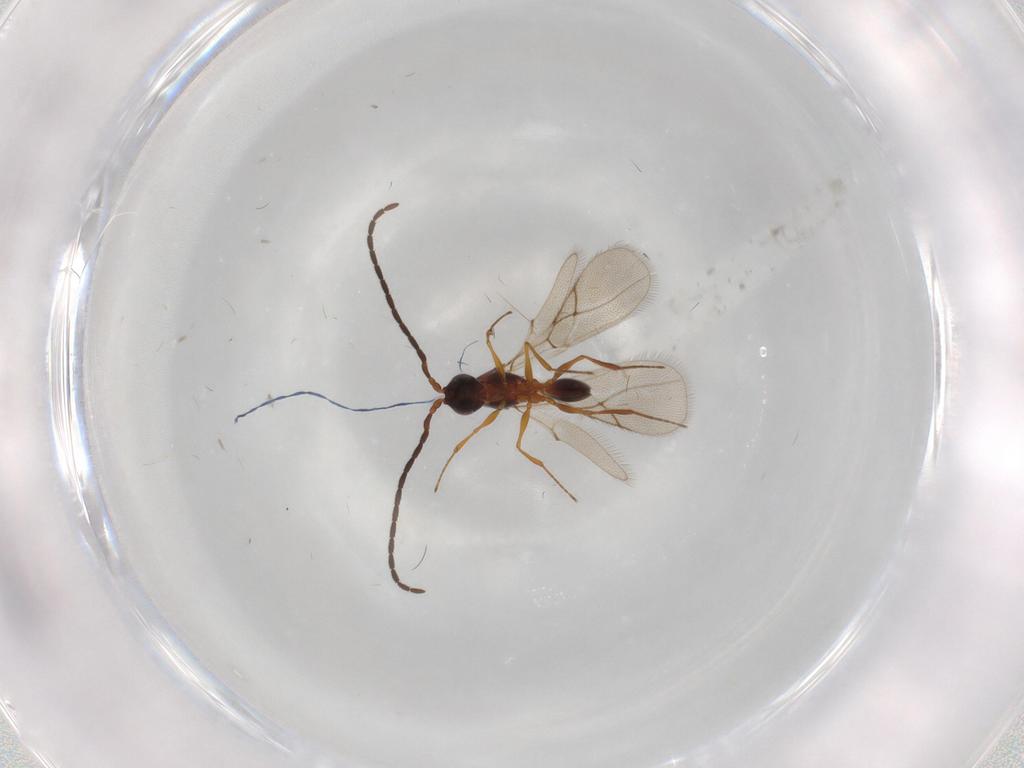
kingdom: Animalia
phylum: Arthropoda
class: Insecta
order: Hymenoptera
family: Figitidae
